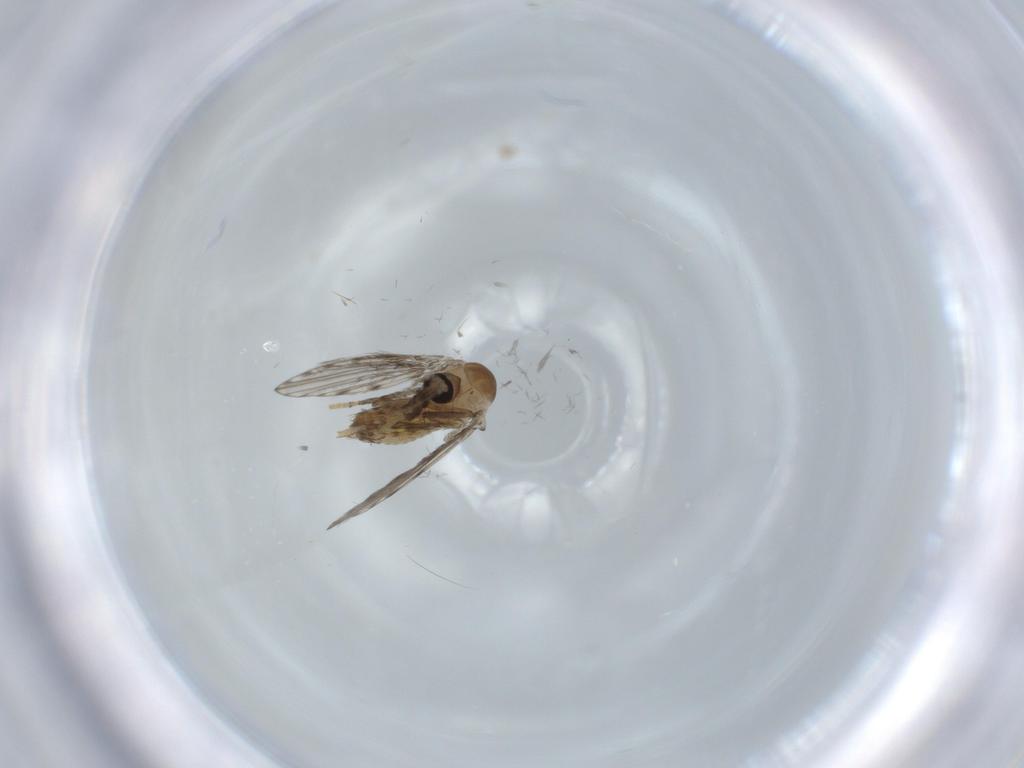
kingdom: Animalia
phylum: Arthropoda
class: Insecta
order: Diptera
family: Psychodidae
